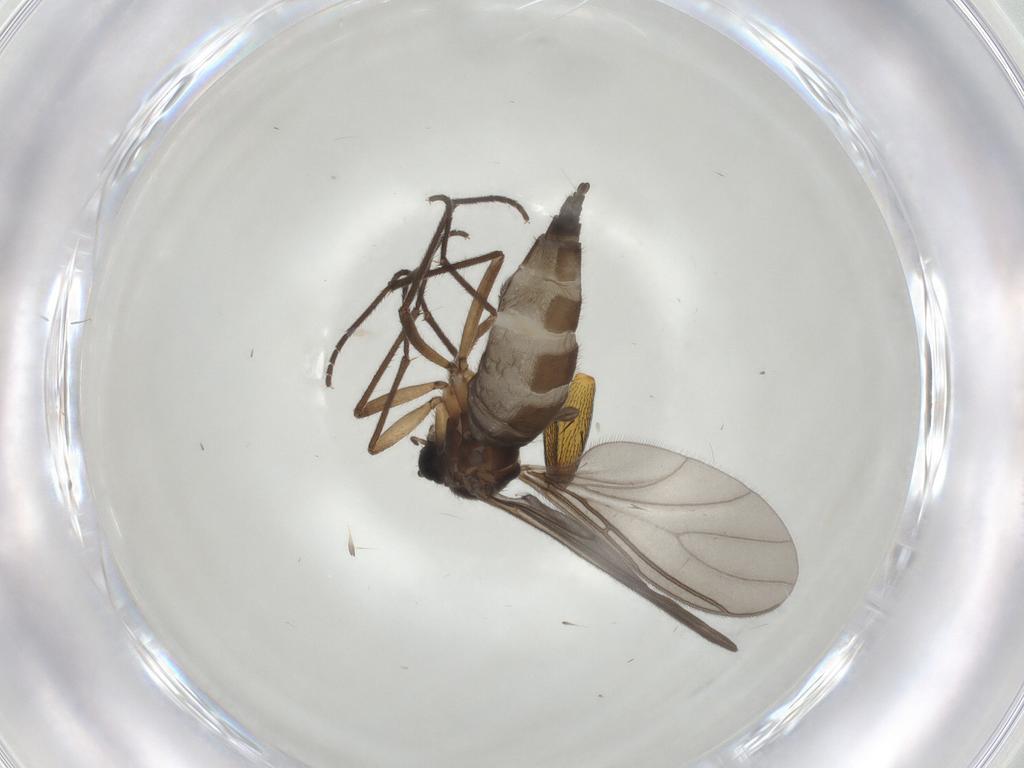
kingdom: Animalia
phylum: Arthropoda
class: Insecta
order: Diptera
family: Sciaridae
